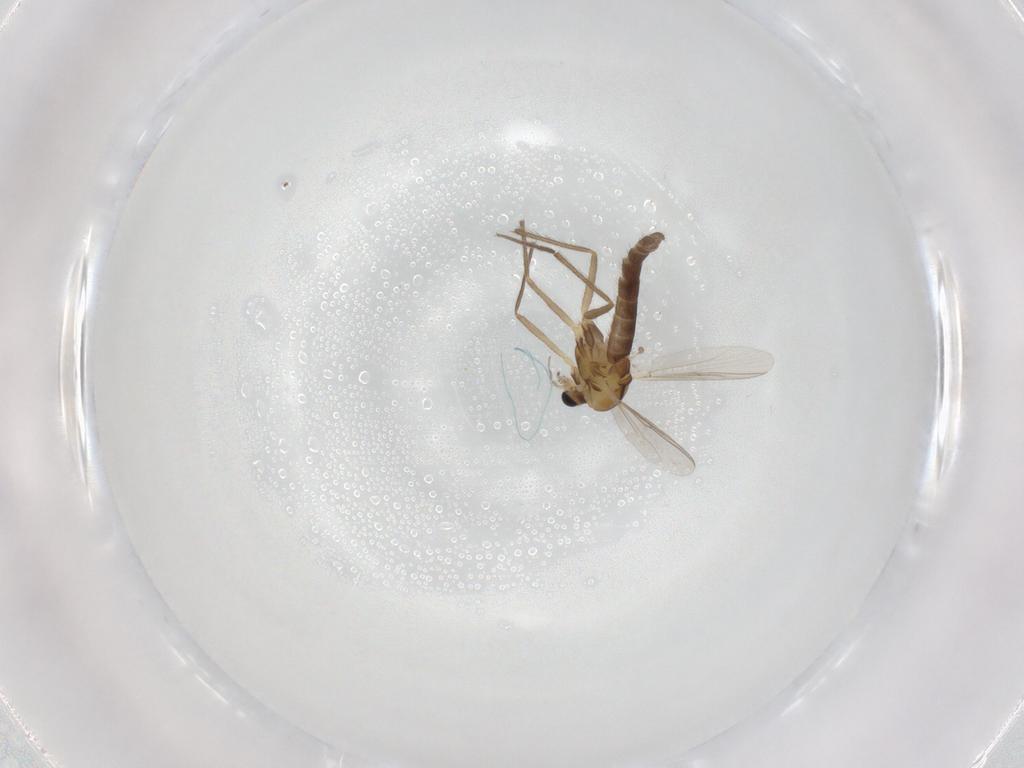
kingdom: Animalia
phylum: Arthropoda
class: Insecta
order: Diptera
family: Chironomidae
